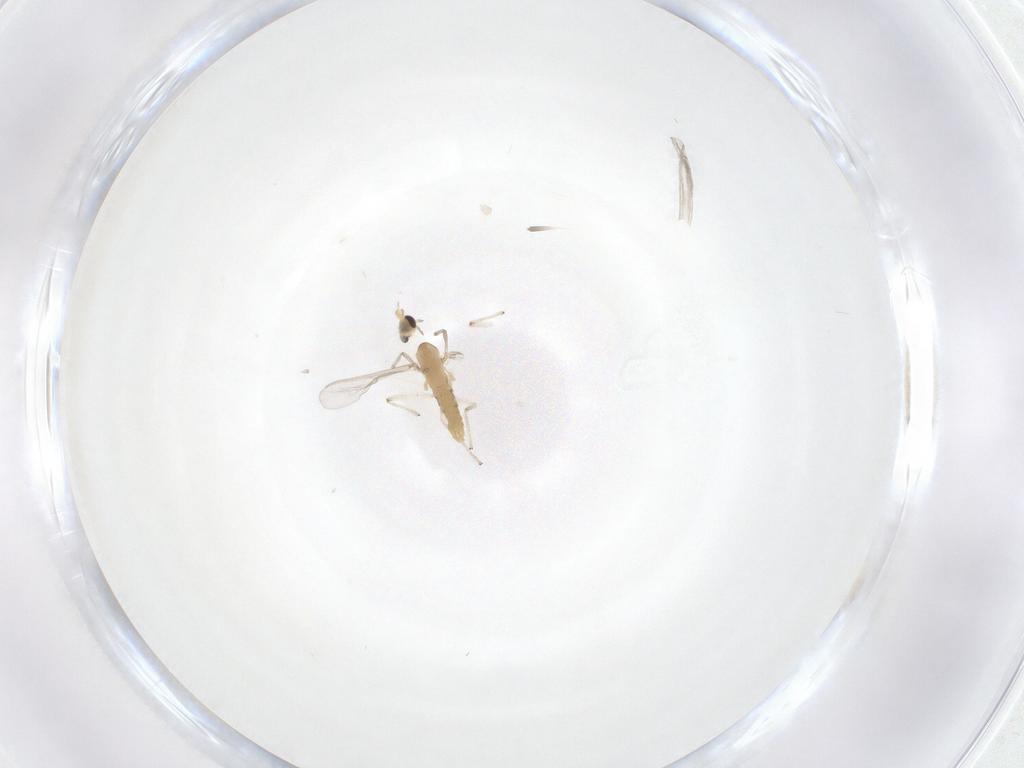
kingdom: Animalia
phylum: Arthropoda
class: Insecta
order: Diptera
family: Chironomidae
